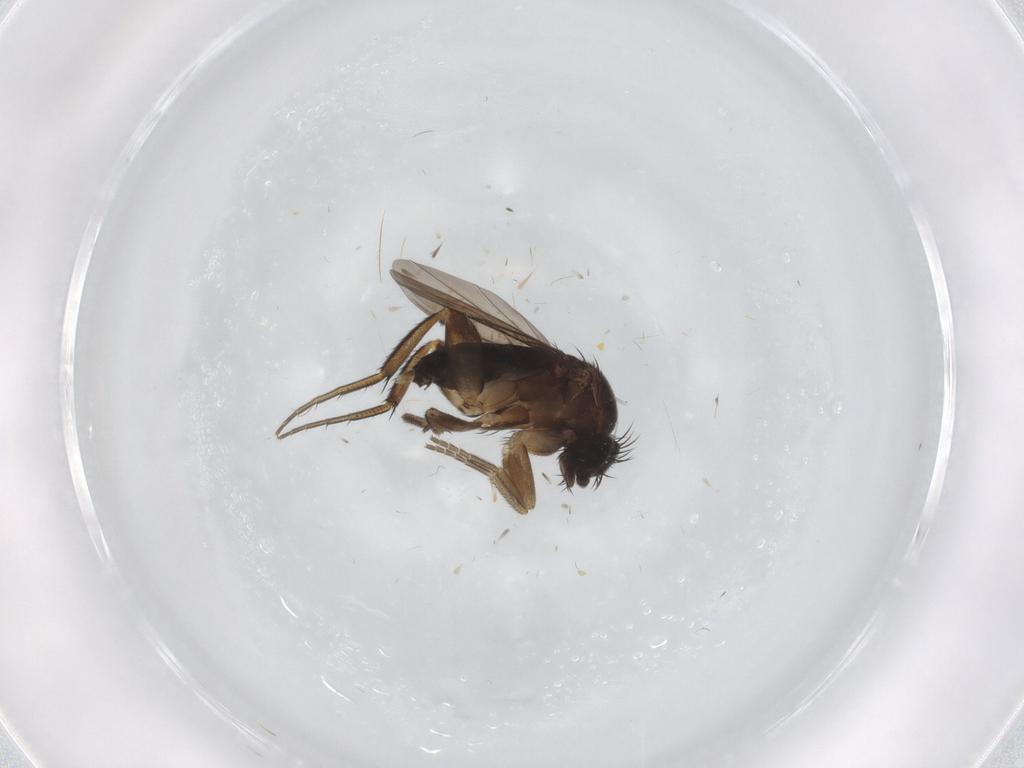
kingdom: Animalia
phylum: Arthropoda
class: Insecta
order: Diptera
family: Phoridae
